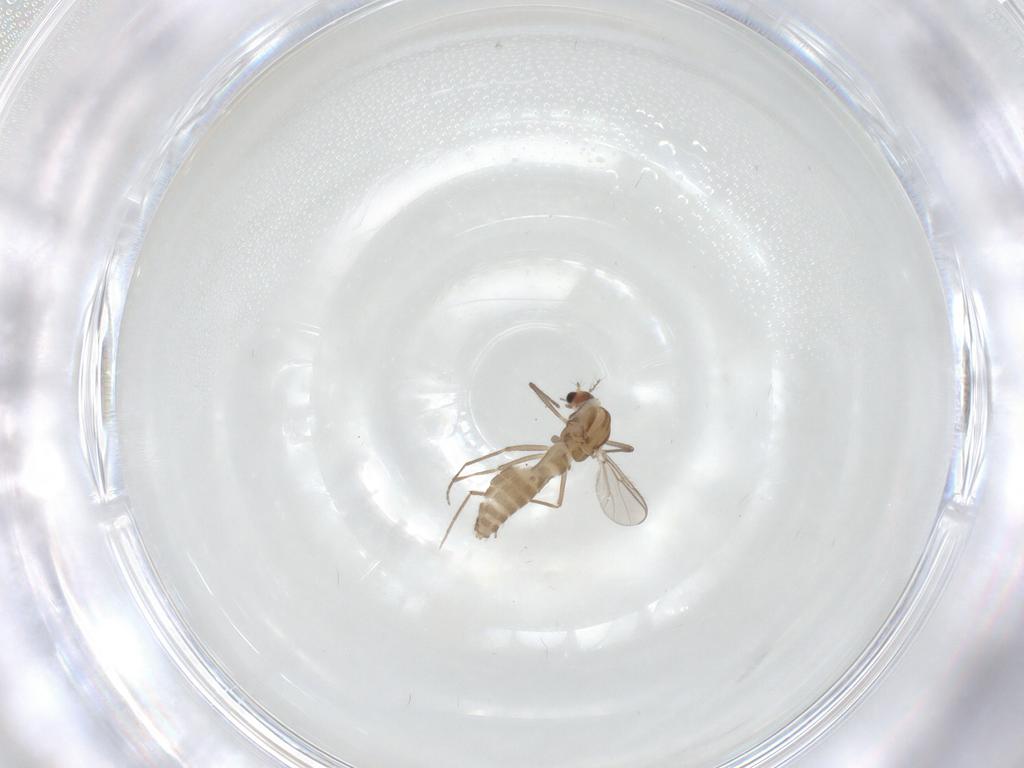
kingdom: Animalia
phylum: Arthropoda
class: Insecta
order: Diptera
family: Chironomidae
